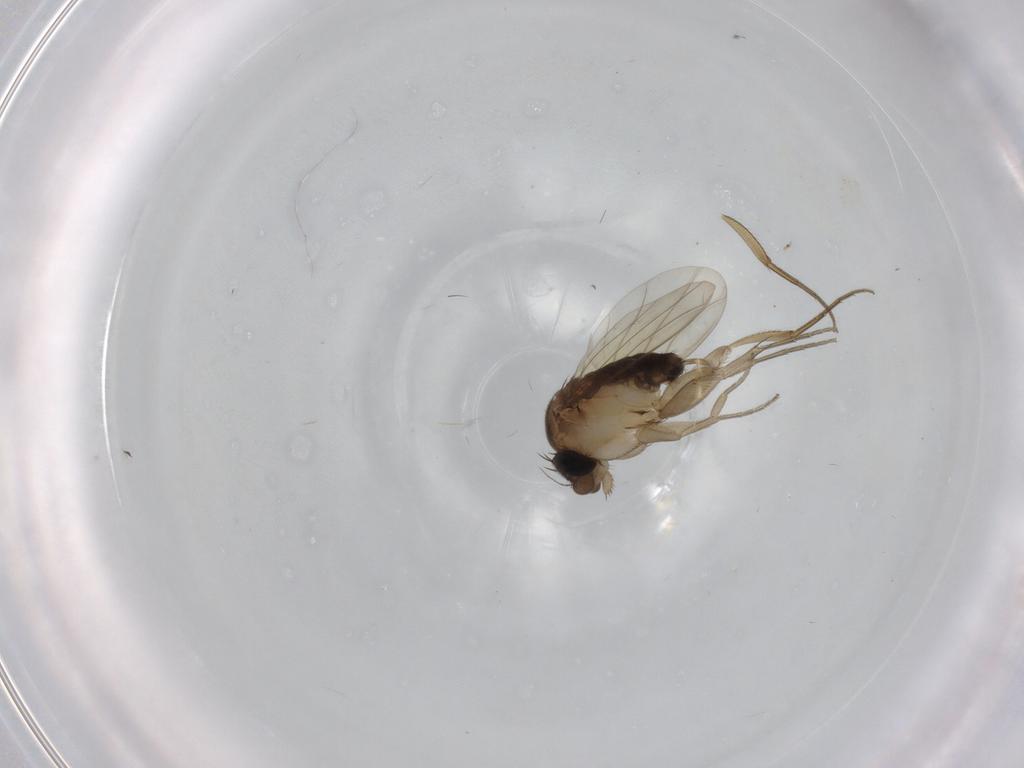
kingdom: Animalia
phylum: Arthropoda
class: Insecta
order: Diptera
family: Phoridae
